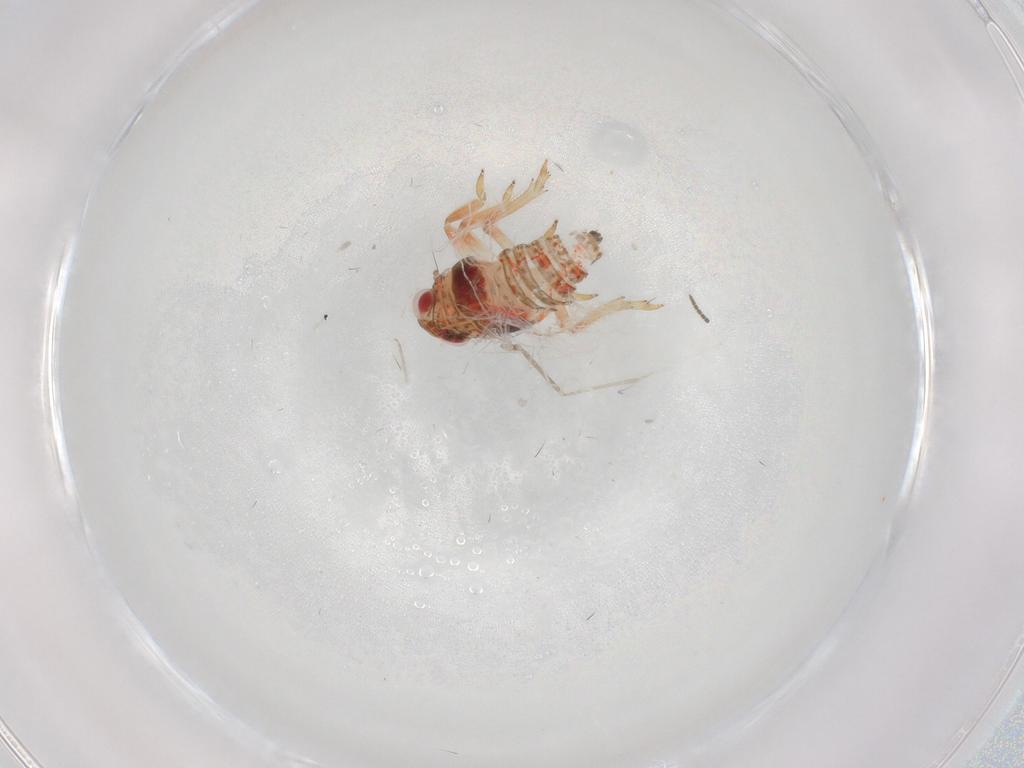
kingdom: Animalia
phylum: Arthropoda
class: Insecta
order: Hemiptera
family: Issidae
